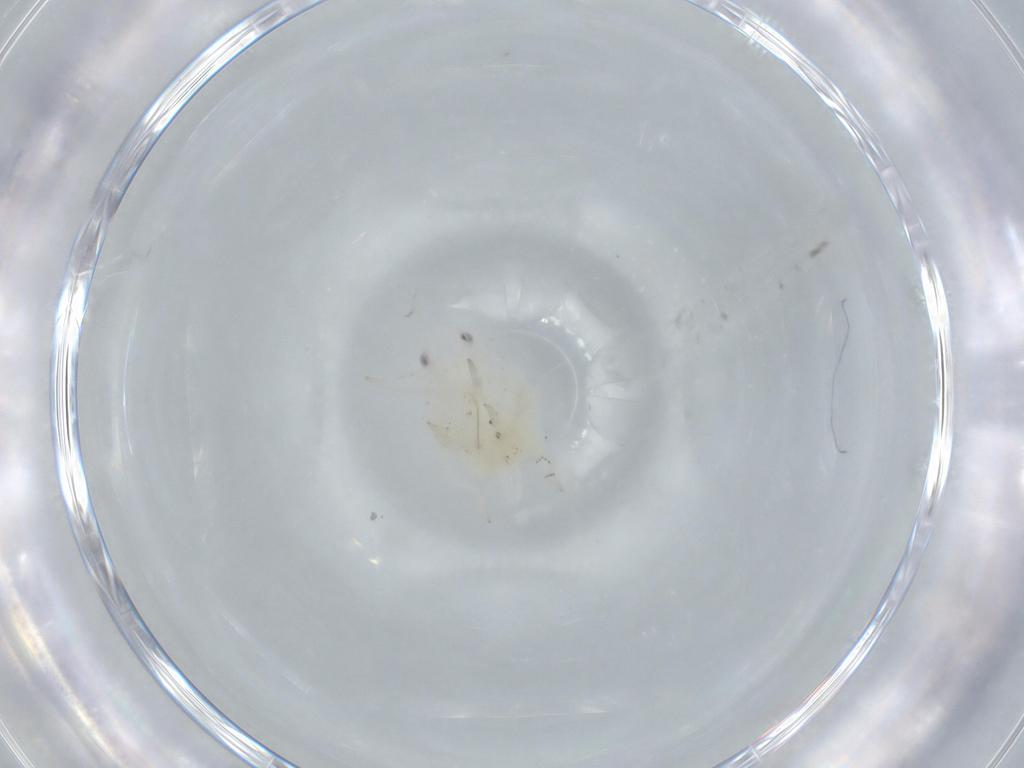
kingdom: Animalia
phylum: Arthropoda
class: Insecta
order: Hemiptera
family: Flatidae
